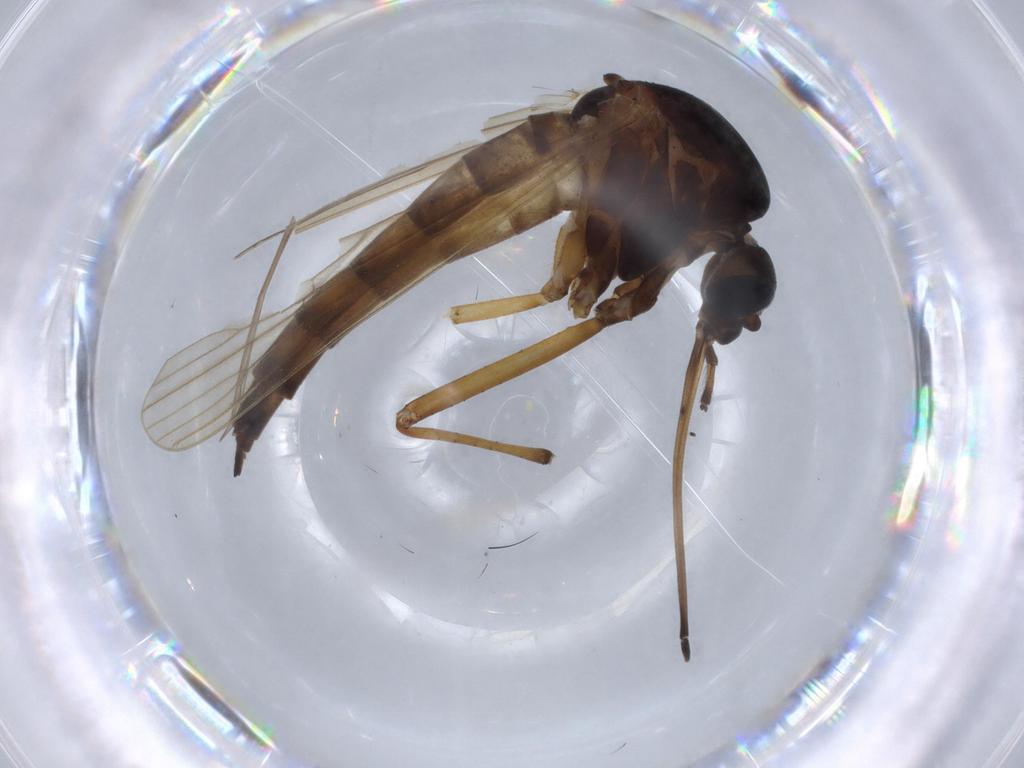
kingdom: Animalia
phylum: Arthropoda
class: Insecta
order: Diptera
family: Phoridae
